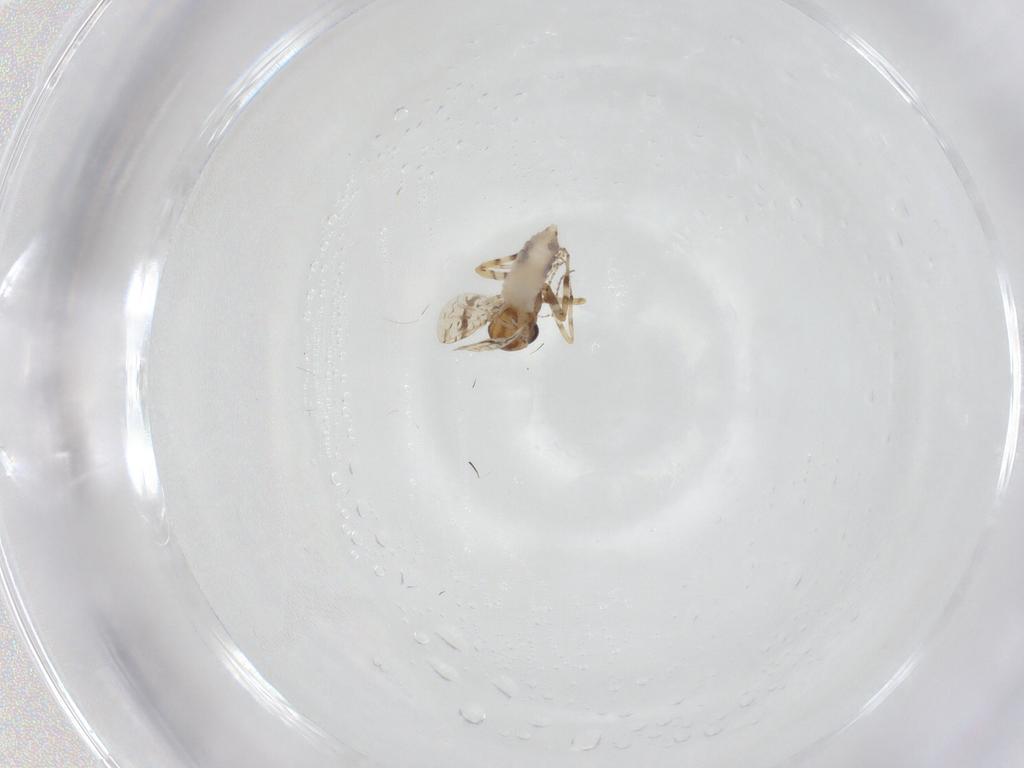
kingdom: Animalia
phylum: Arthropoda
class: Insecta
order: Diptera
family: Ceratopogonidae
